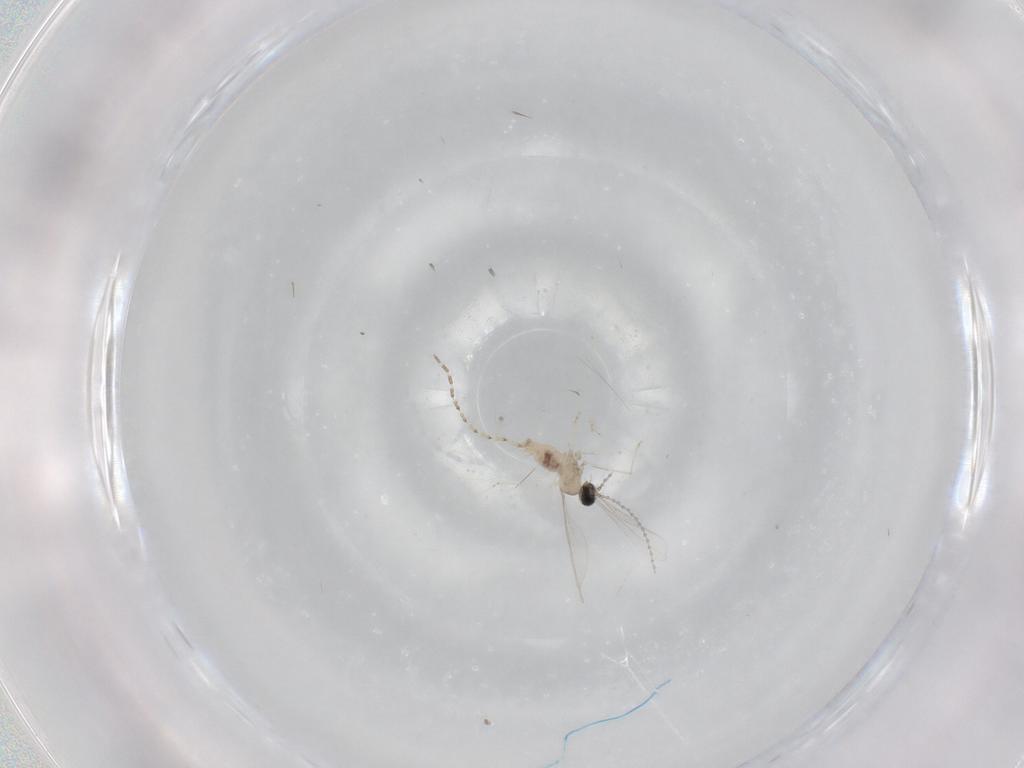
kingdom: Animalia
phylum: Arthropoda
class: Insecta
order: Diptera
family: Cecidomyiidae
